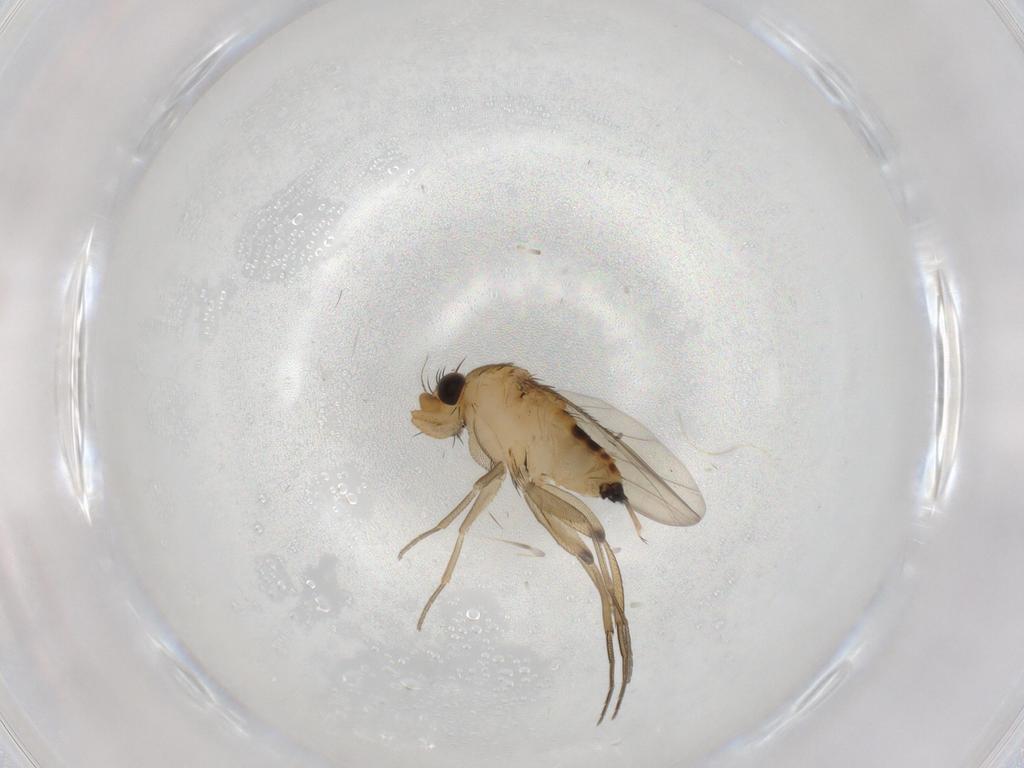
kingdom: Animalia
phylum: Arthropoda
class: Insecta
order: Diptera
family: Phoridae
